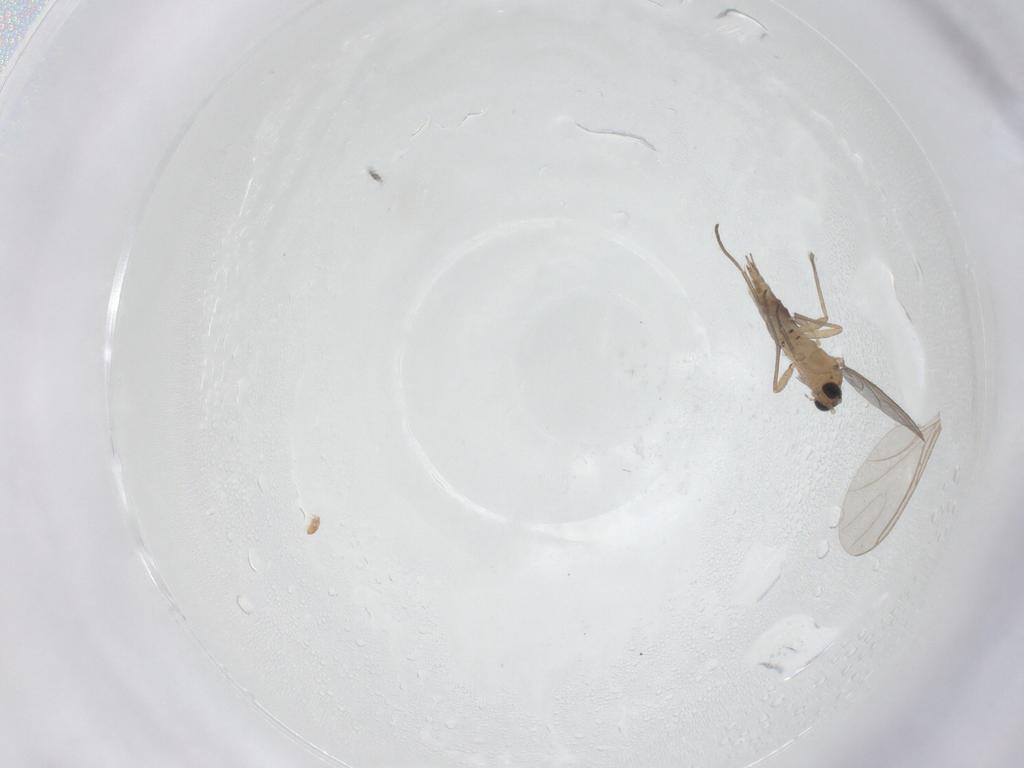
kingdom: Animalia
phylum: Arthropoda
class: Insecta
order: Diptera
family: Sciaridae
